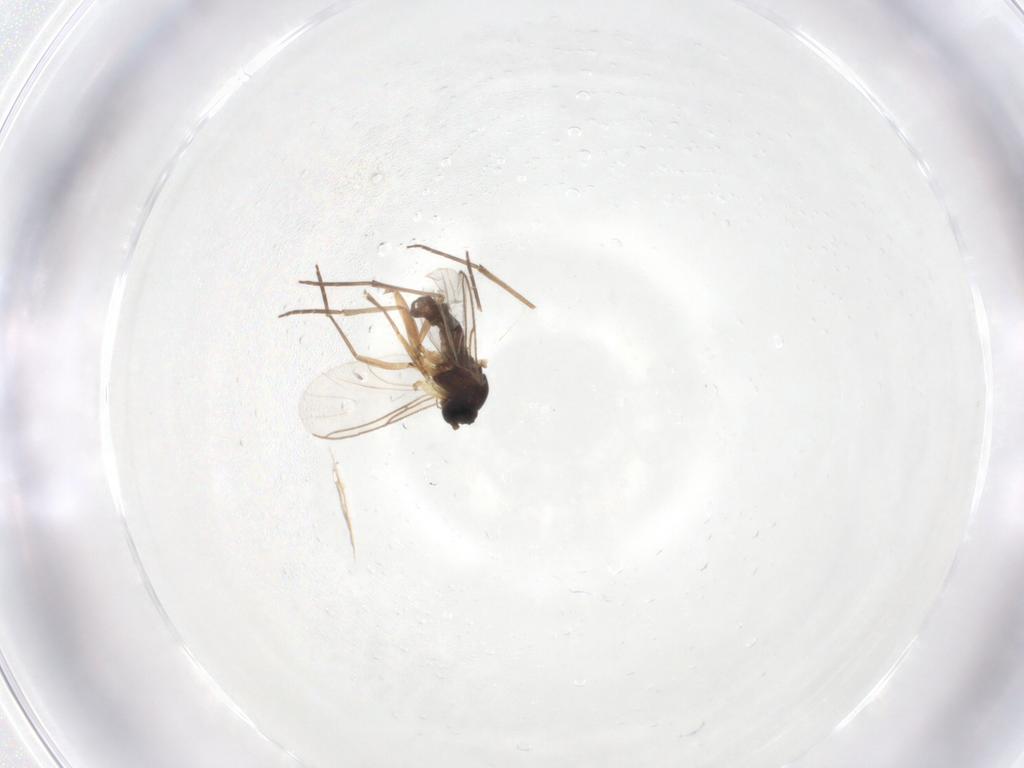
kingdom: Animalia
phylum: Arthropoda
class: Insecta
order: Diptera
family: Sciaridae
